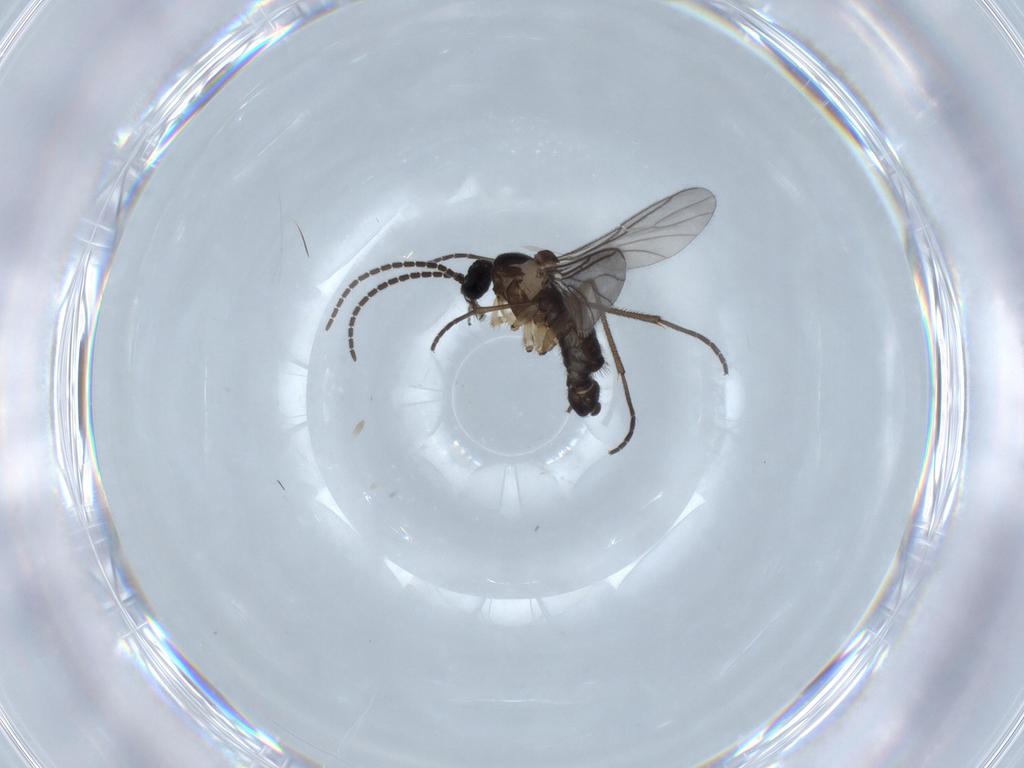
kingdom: Animalia
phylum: Arthropoda
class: Insecta
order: Diptera
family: Sciaridae
